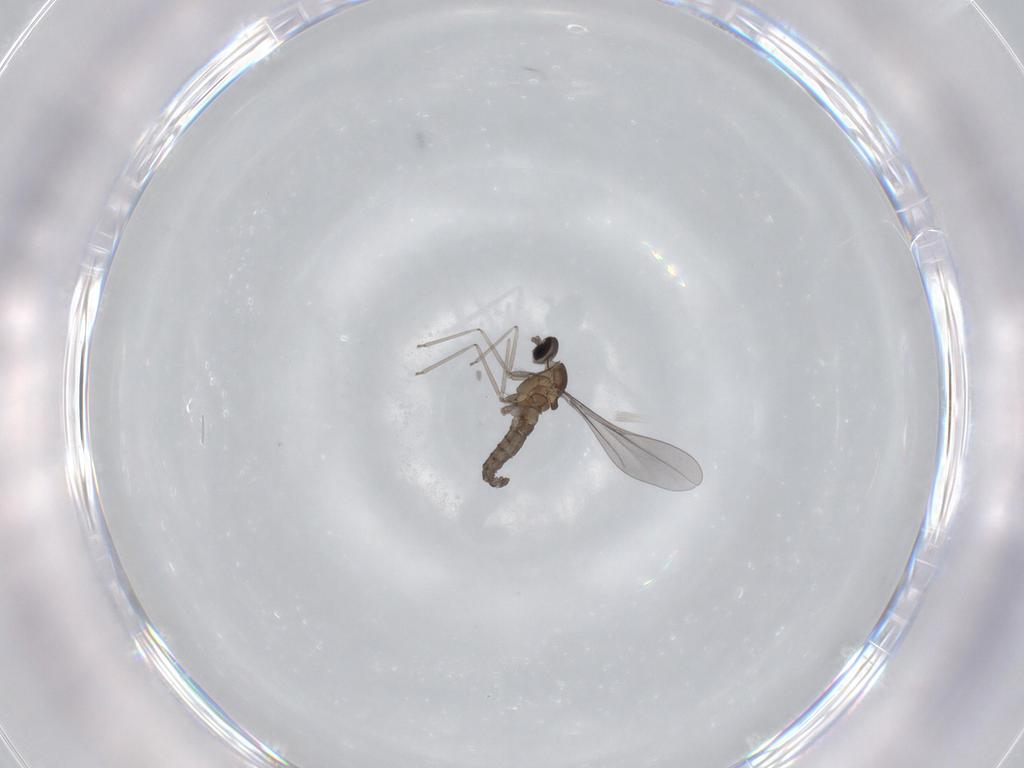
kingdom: Animalia
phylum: Arthropoda
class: Insecta
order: Diptera
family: Cecidomyiidae
